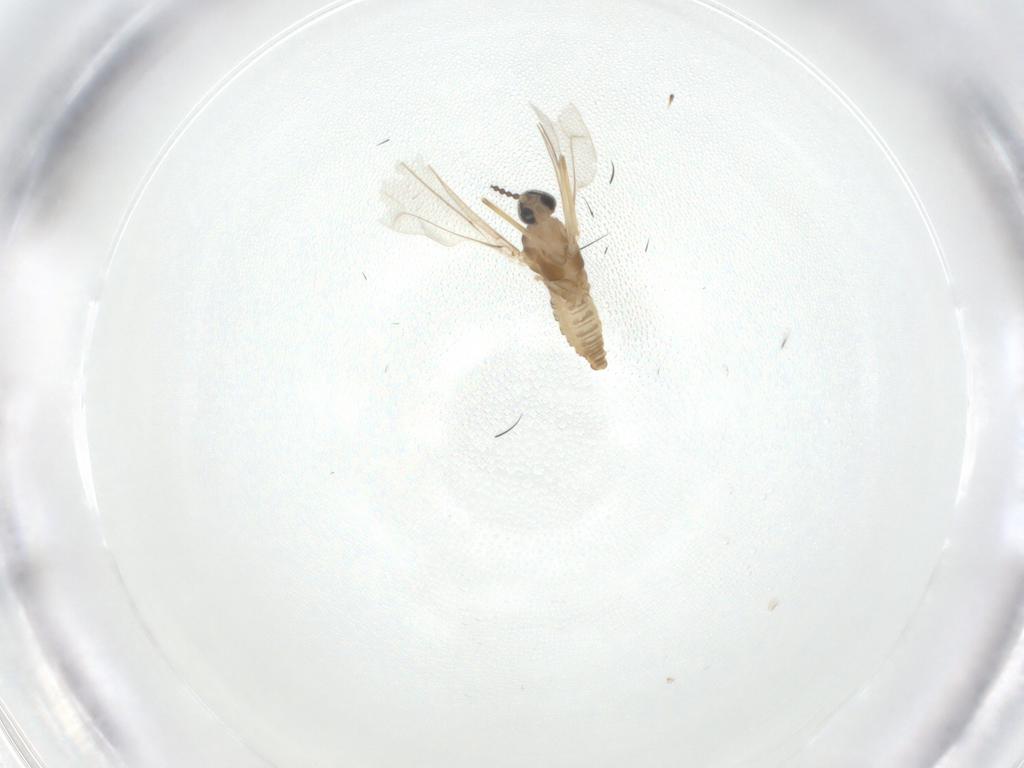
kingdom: Animalia
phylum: Arthropoda
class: Insecta
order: Diptera
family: Cecidomyiidae
